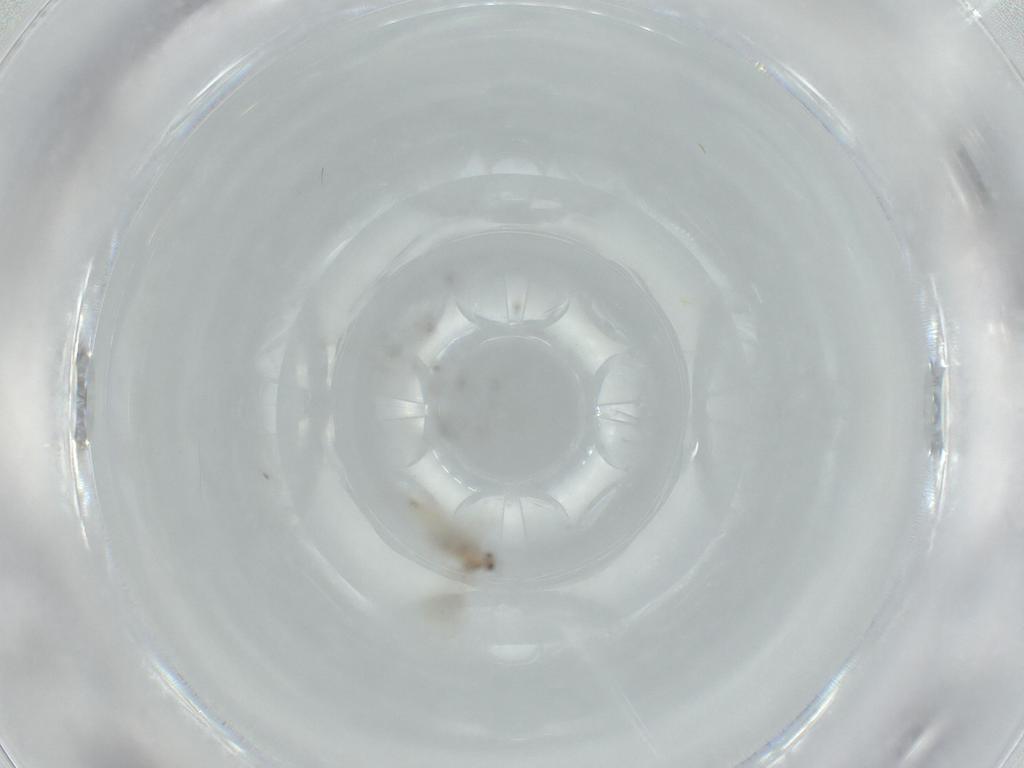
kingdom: Animalia
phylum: Arthropoda
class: Insecta
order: Diptera
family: Cecidomyiidae
